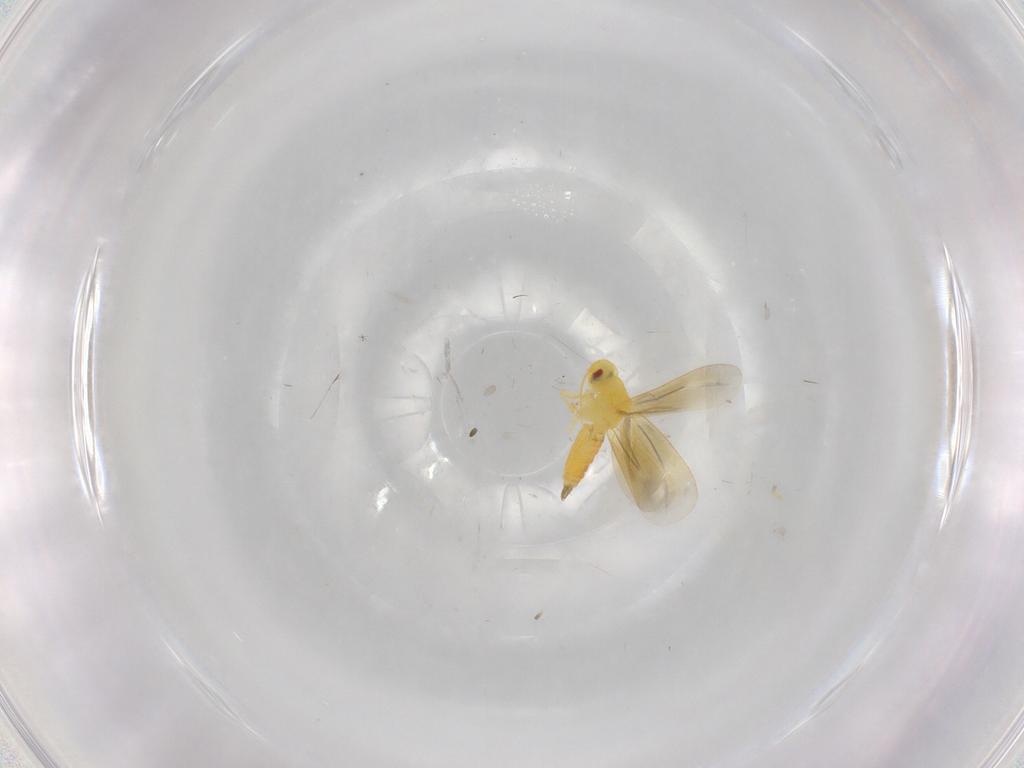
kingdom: Animalia
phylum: Arthropoda
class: Insecta
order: Hemiptera
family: Aleyrodidae
